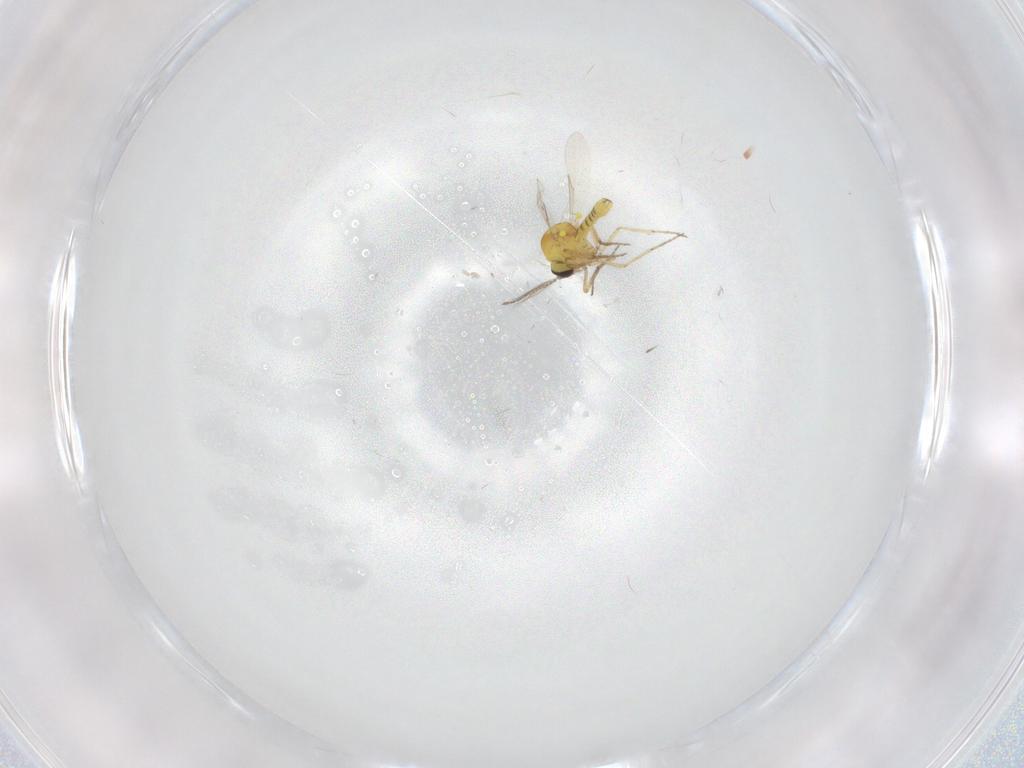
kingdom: Animalia
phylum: Arthropoda
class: Insecta
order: Diptera
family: Ceratopogonidae
